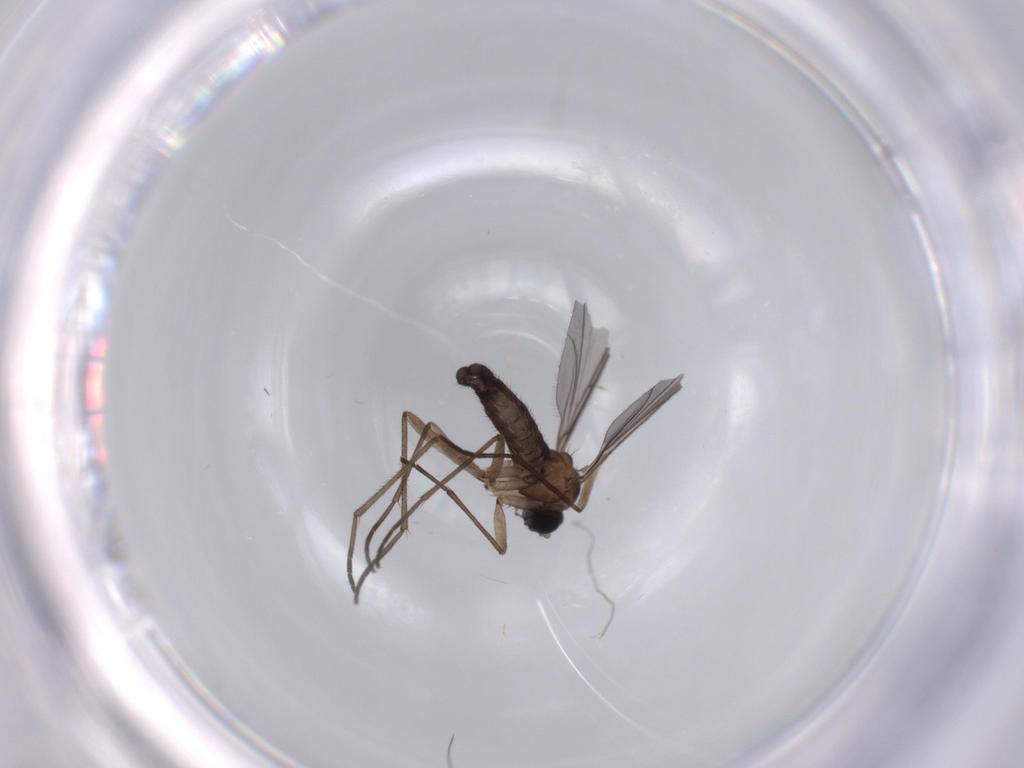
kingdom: Animalia
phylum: Arthropoda
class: Insecta
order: Diptera
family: Sciaridae
